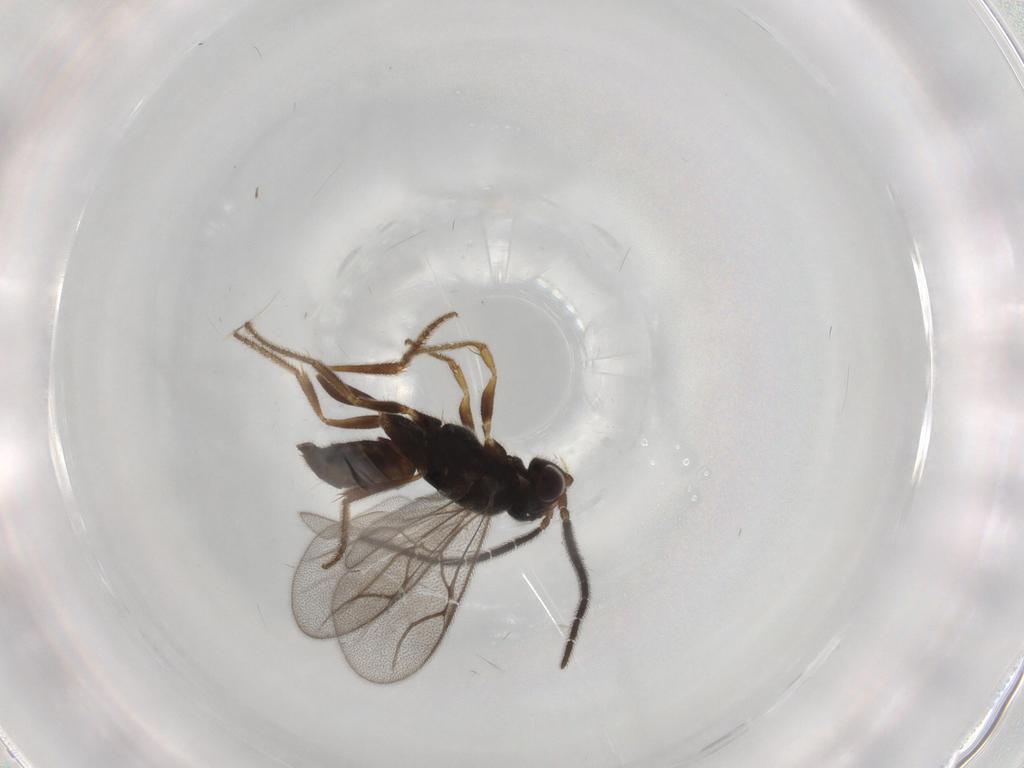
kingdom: Animalia
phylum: Arthropoda
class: Insecta
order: Hymenoptera
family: Dryinidae
